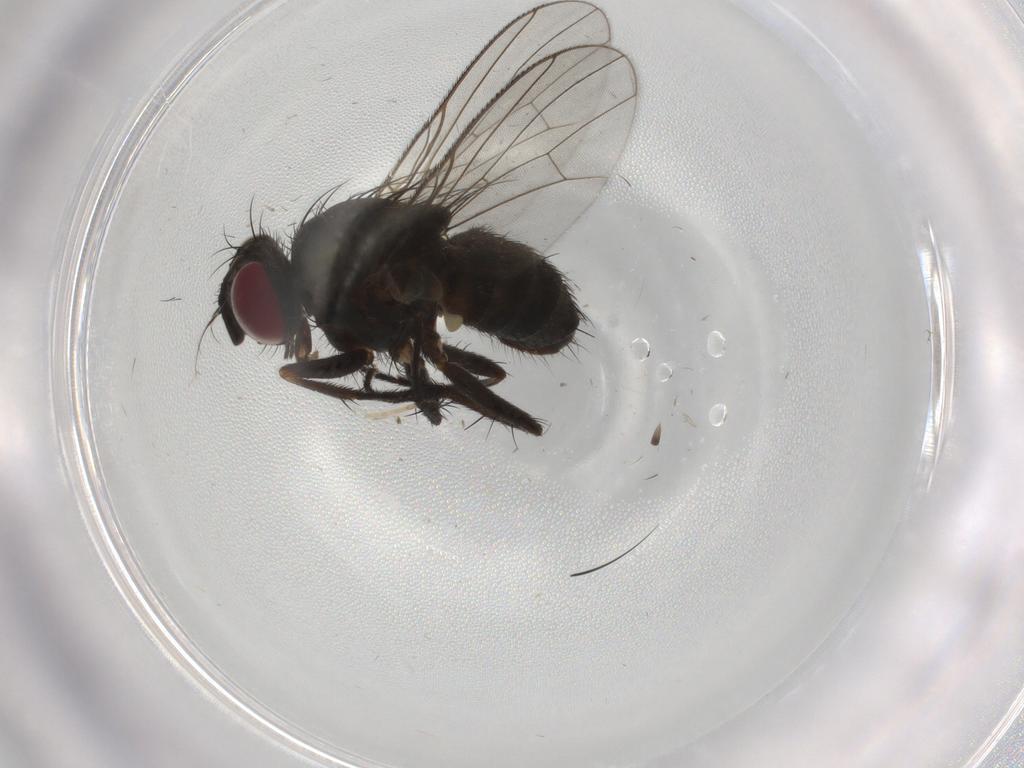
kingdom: Animalia
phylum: Arthropoda
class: Insecta
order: Diptera
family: Muscidae
